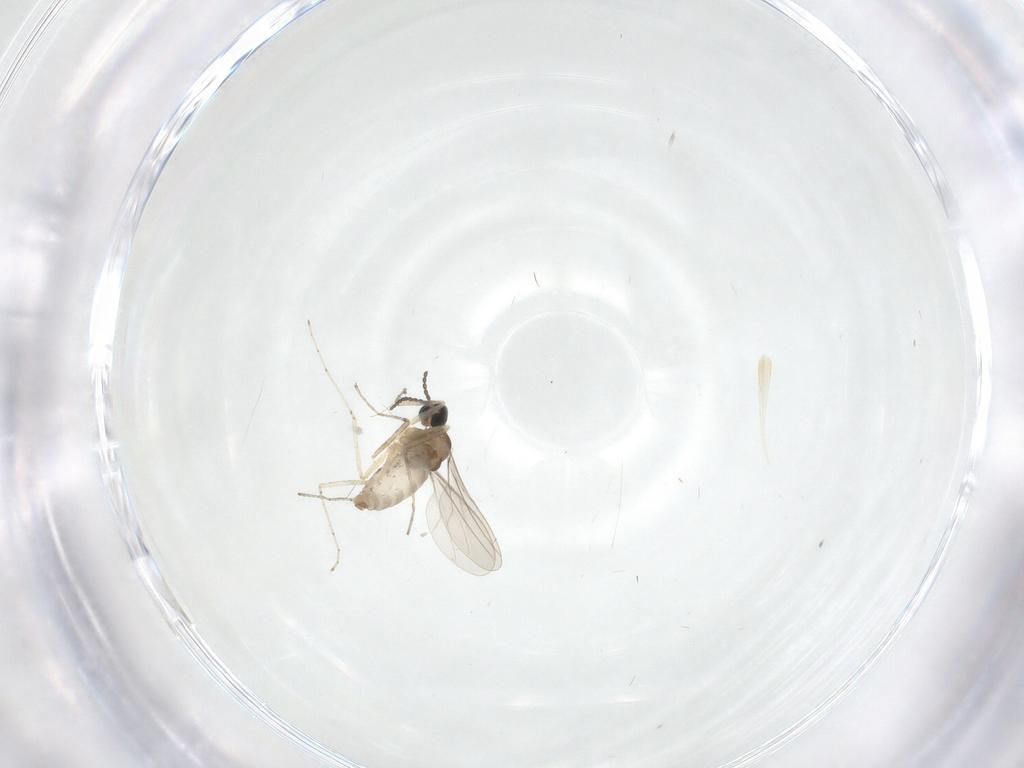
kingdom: Animalia
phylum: Arthropoda
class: Insecta
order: Diptera
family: Cecidomyiidae
